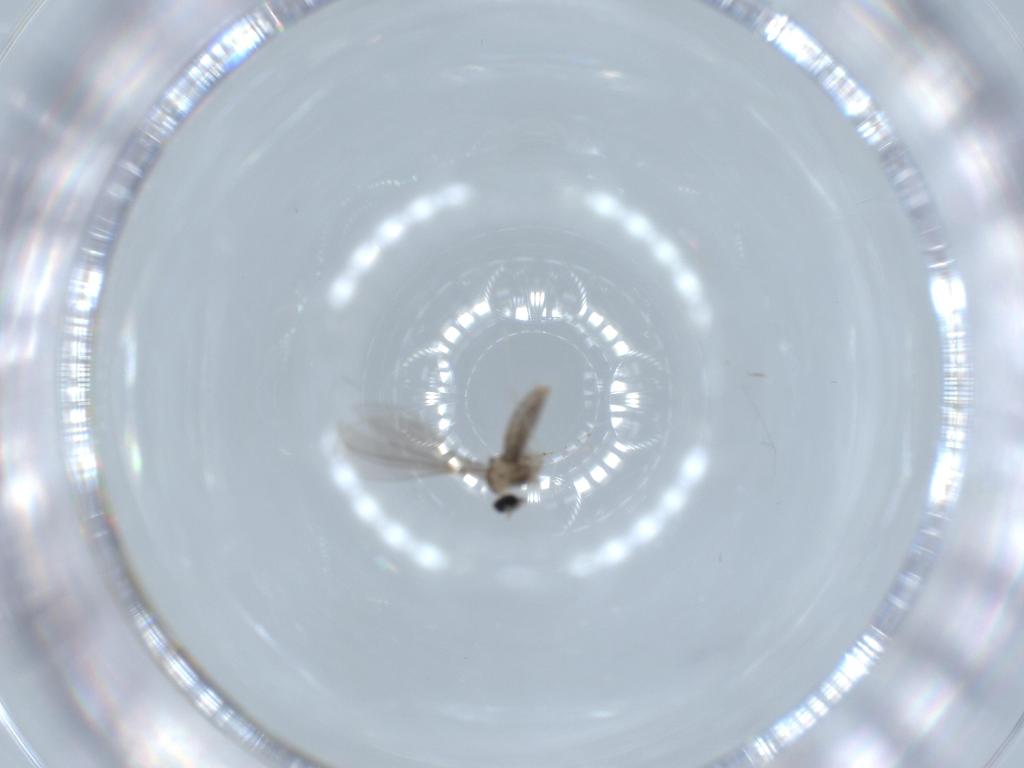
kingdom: Animalia
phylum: Arthropoda
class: Insecta
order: Diptera
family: Cecidomyiidae
